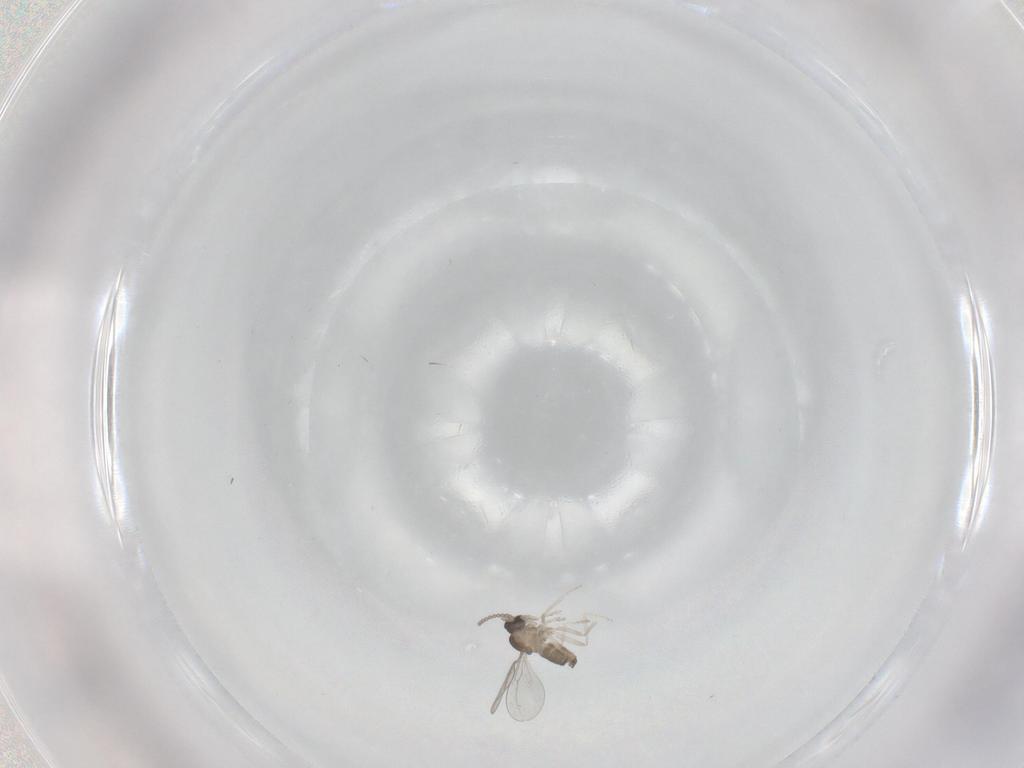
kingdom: Animalia
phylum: Arthropoda
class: Insecta
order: Diptera
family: Cecidomyiidae
